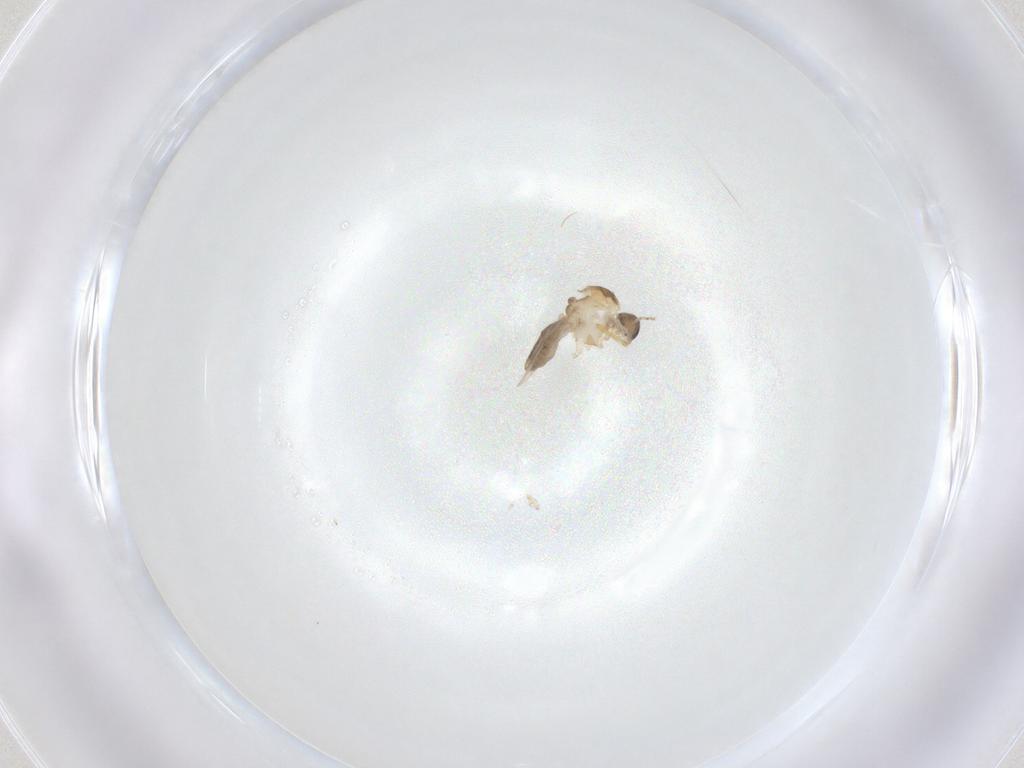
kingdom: Animalia
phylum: Arthropoda
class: Insecta
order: Diptera
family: Ceratopogonidae
